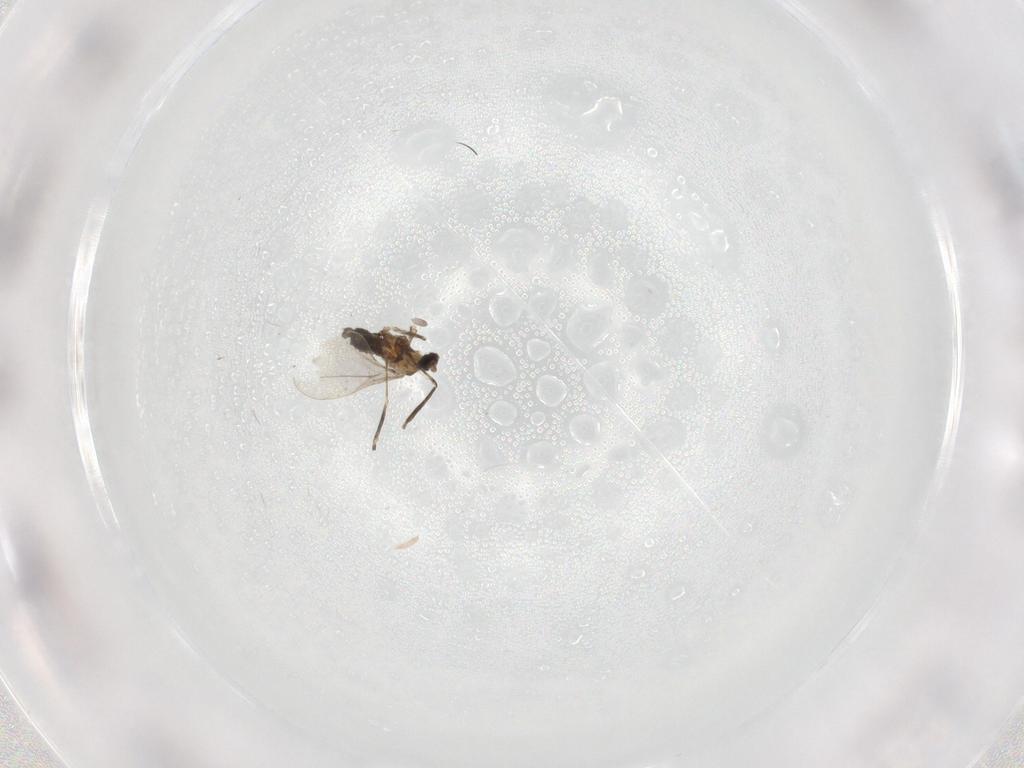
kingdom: Animalia
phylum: Arthropoda
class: Insecta
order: Diptera
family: Cecidomyiidae
